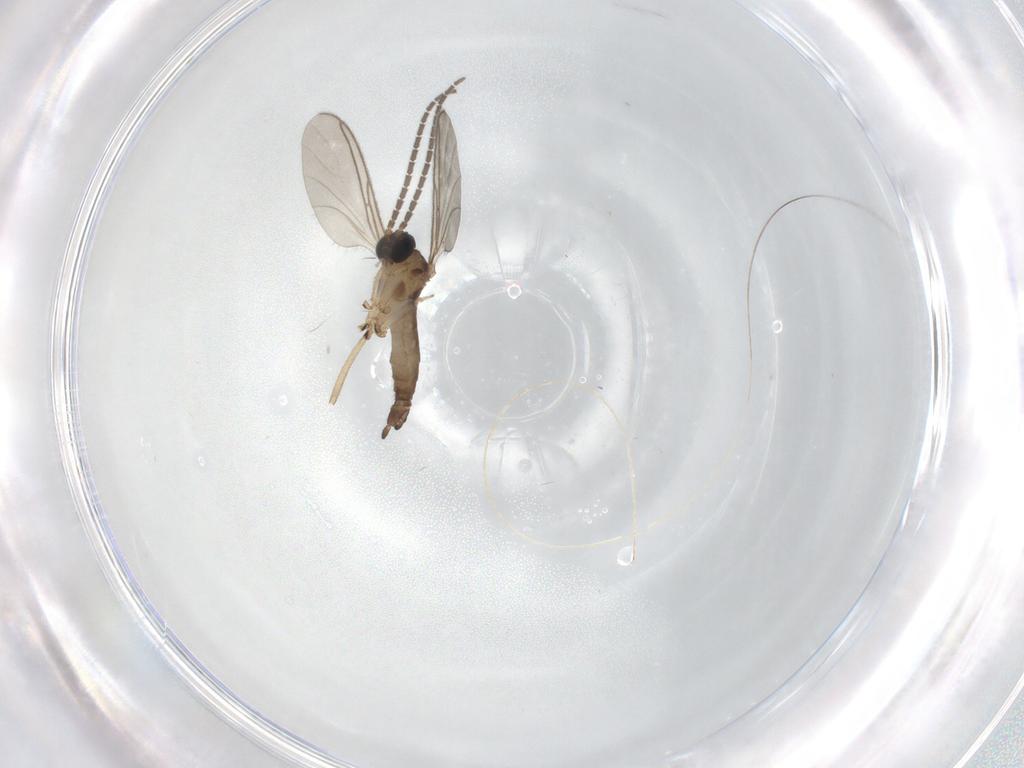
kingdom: Animalia
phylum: Arthropoda
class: Insecta
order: Diptera
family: Sciaridae
